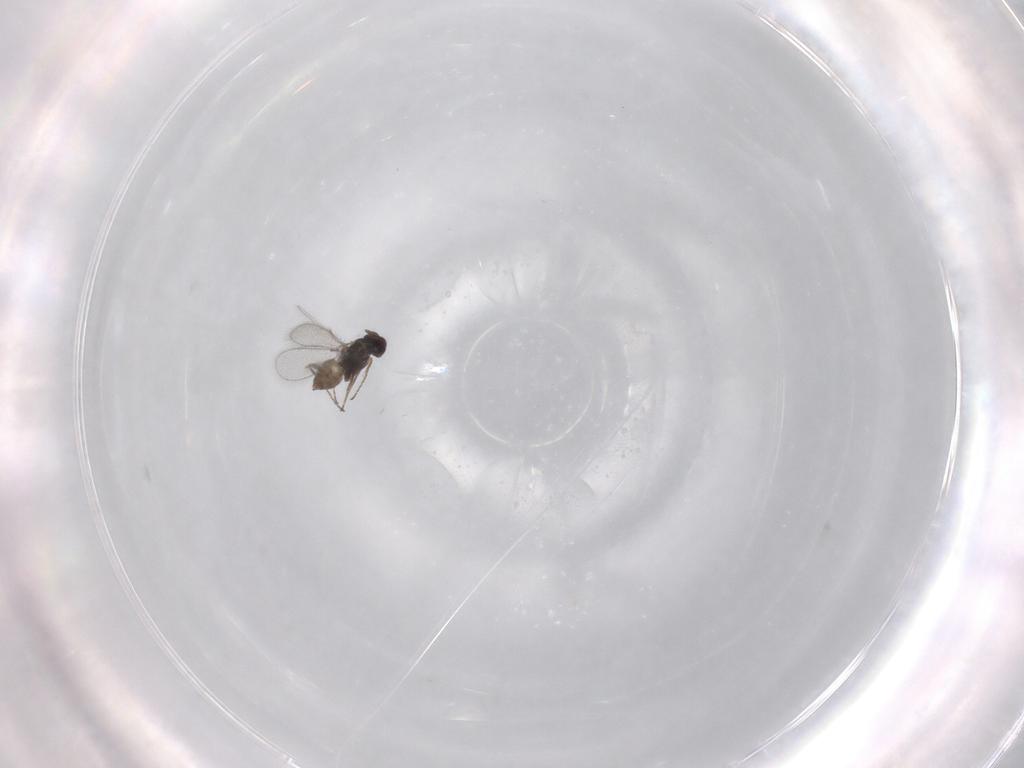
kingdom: Animalia
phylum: Arthropoda
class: Insecta
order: Hymenoptera
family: Mymaridae
